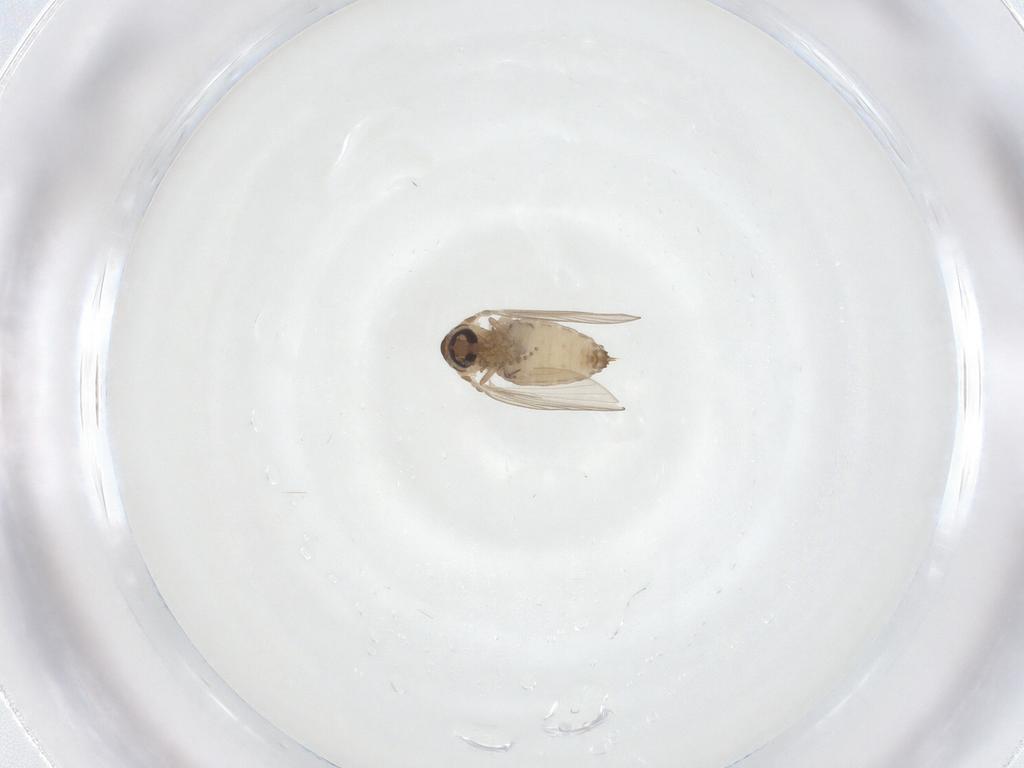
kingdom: Animalia
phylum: Arthropoda
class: Insecta
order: Diptera
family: Psychodidae
